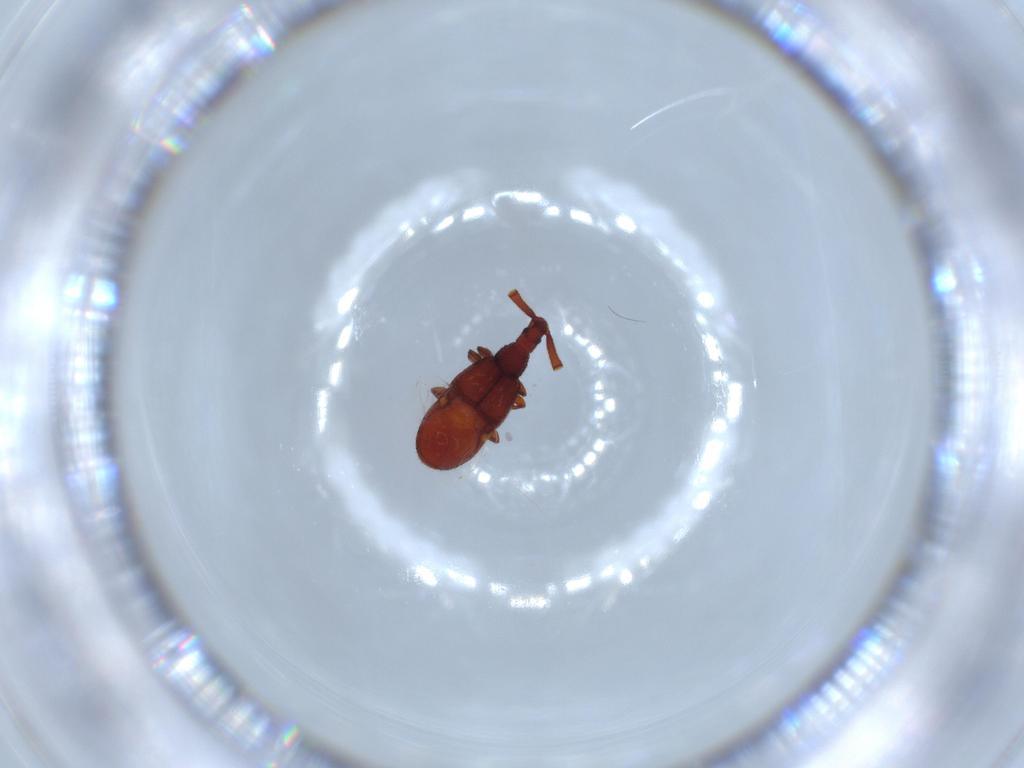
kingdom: Animalia
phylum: Arthropoda
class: Insecta
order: Coleoptera
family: Staphylinidae
